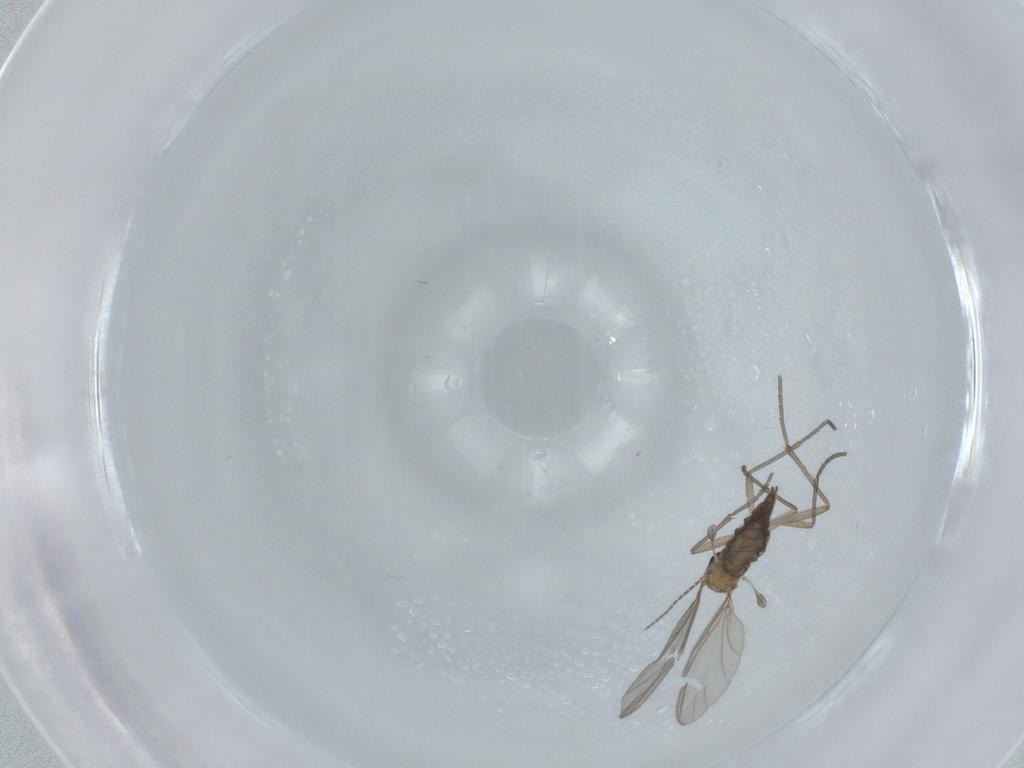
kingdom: Animalia
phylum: Arthropoda
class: Insecta
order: Diptera
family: Sciaridae
